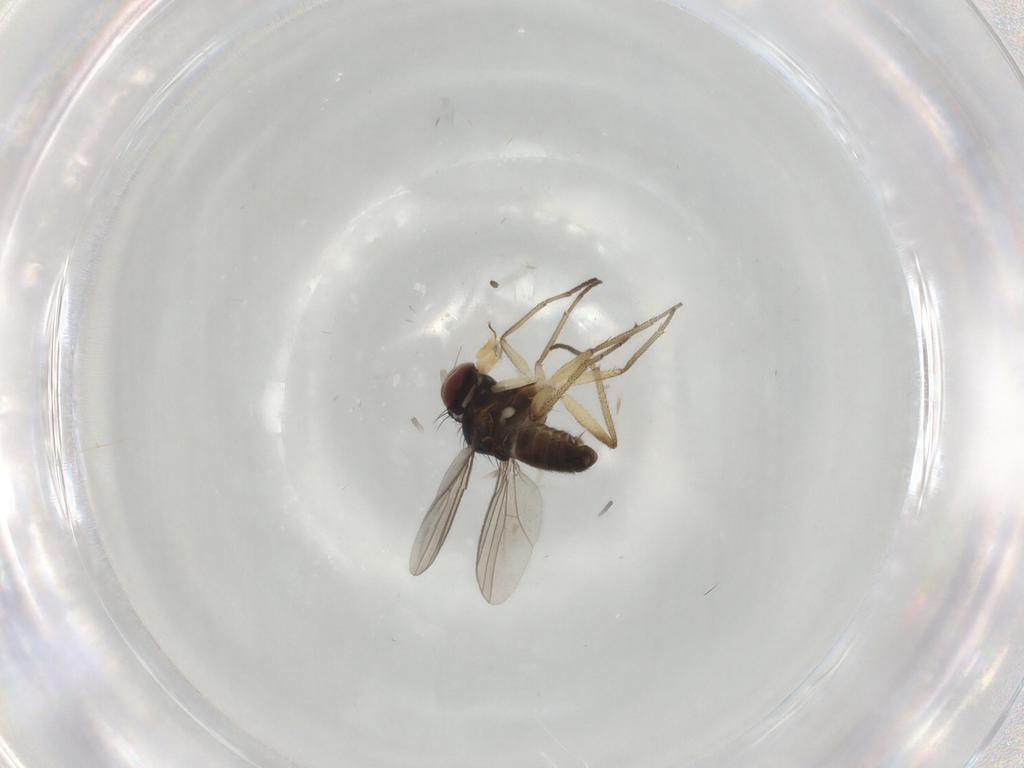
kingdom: Animalia
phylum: Arthropoda
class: Insecta
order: Diptera
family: Dolichopodidae
